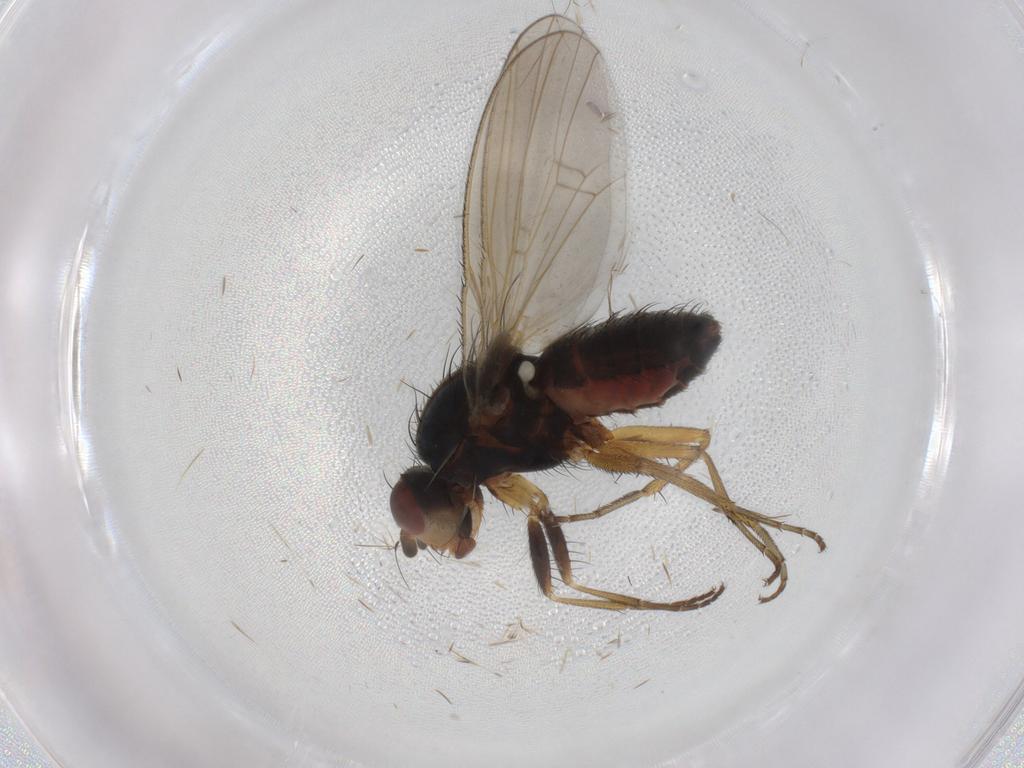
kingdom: Animalia
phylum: Arthropoda
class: Insecta
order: Diptera
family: Heleomyzidae
